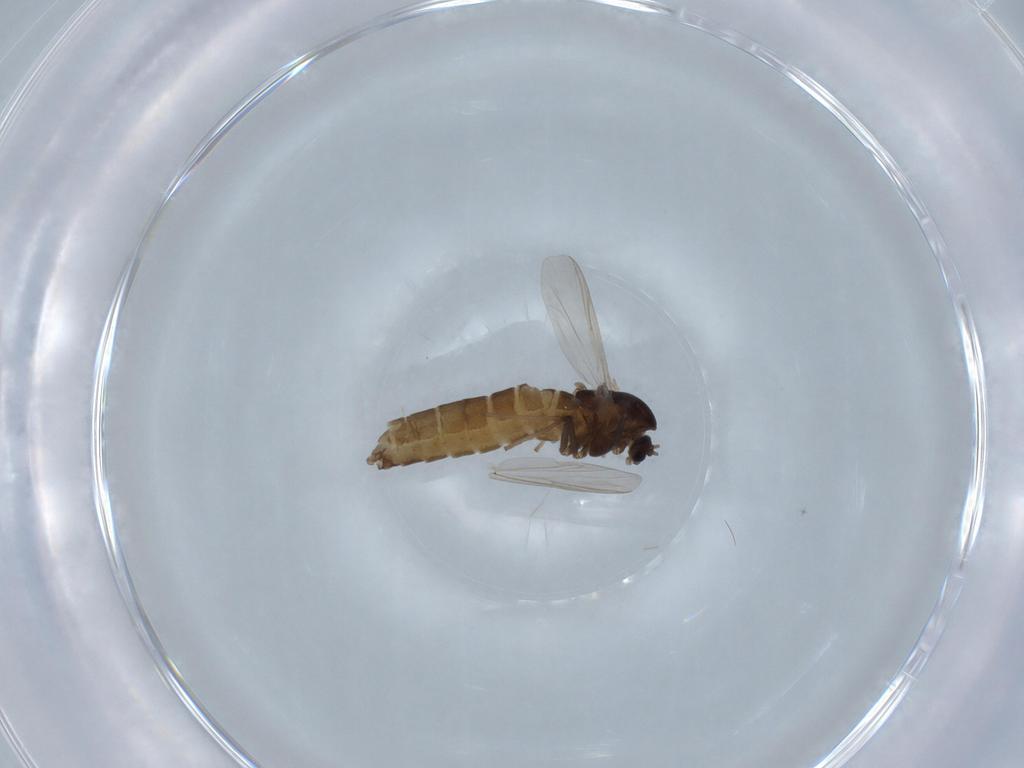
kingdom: Animalia
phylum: Arthropoda
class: Insecta
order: Diptera
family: Chironomidae
